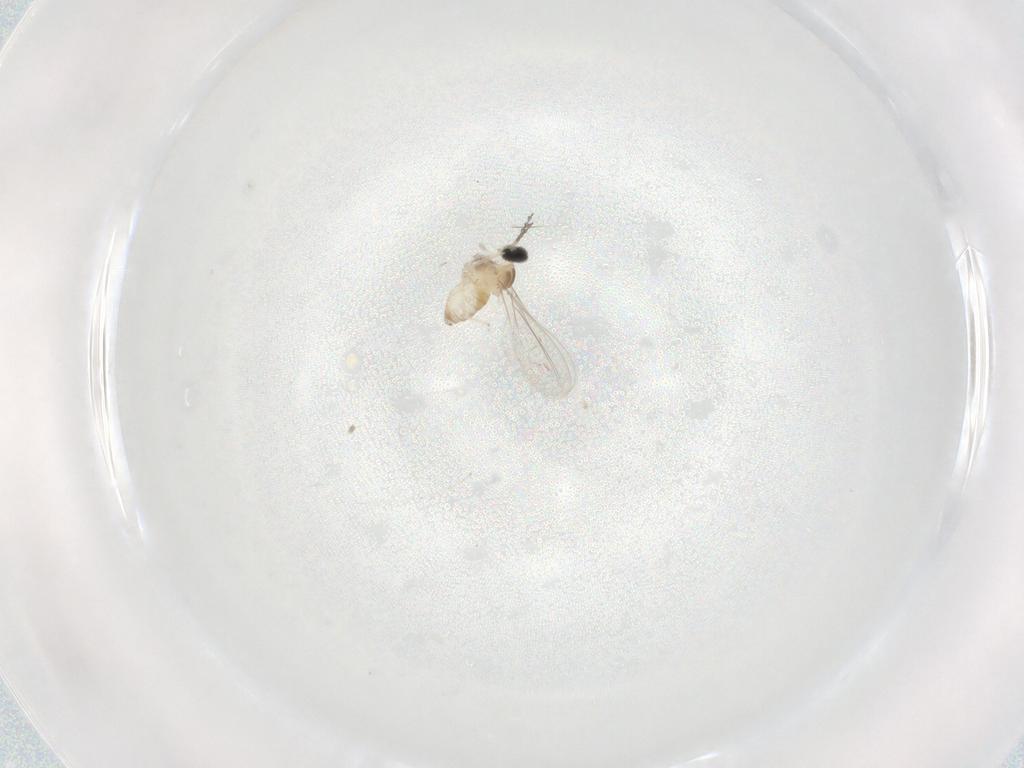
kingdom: Animalia
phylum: Arthropoda
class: Insecta
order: Diptera
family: Cecidomyiidae
